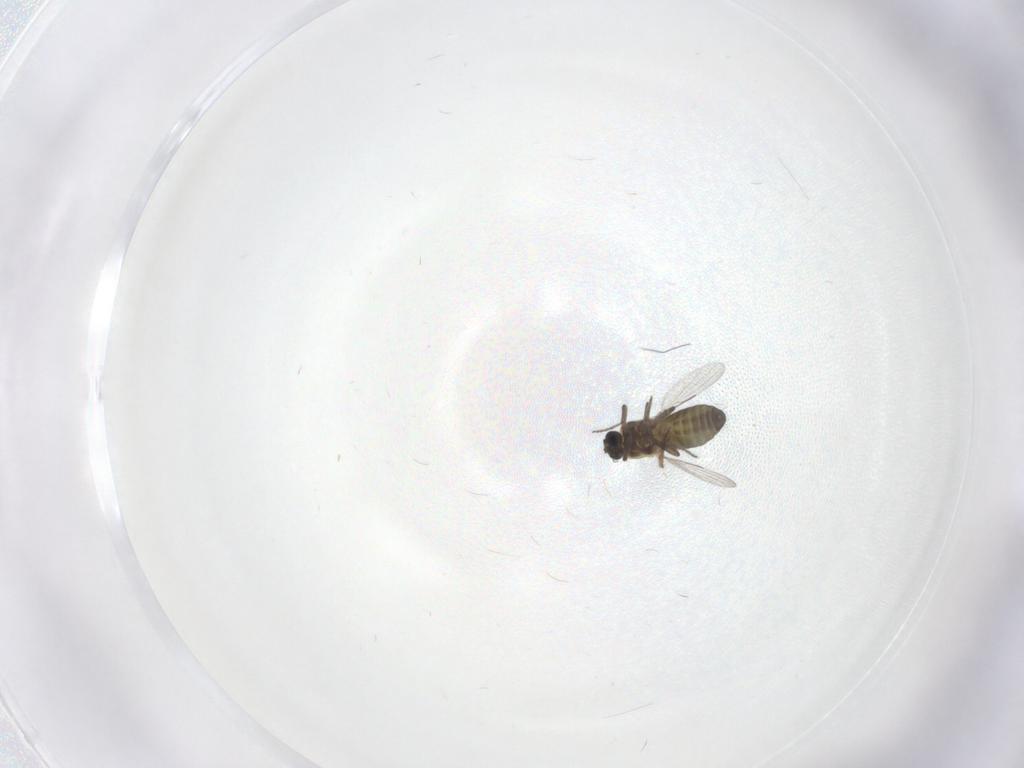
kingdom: Animalia
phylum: Arthropoda
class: Insecta
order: Diptera
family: Ceratopogonidae
